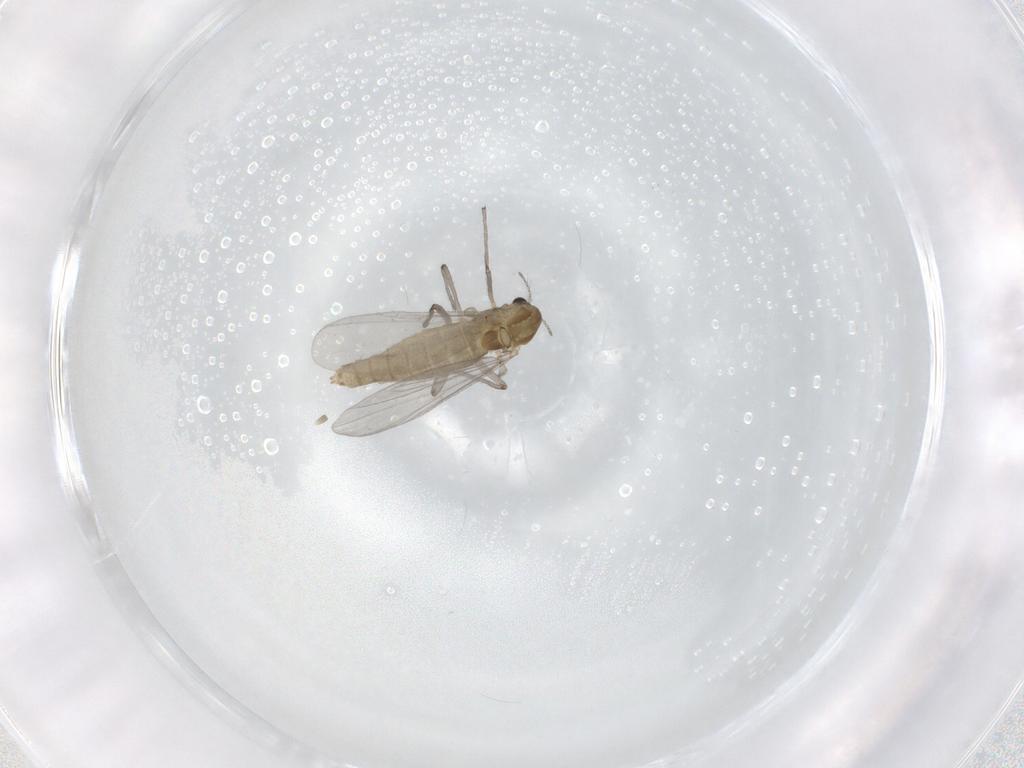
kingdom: Animalia
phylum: Arthropoda
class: Insecta
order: Diptera
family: Chironomidae
